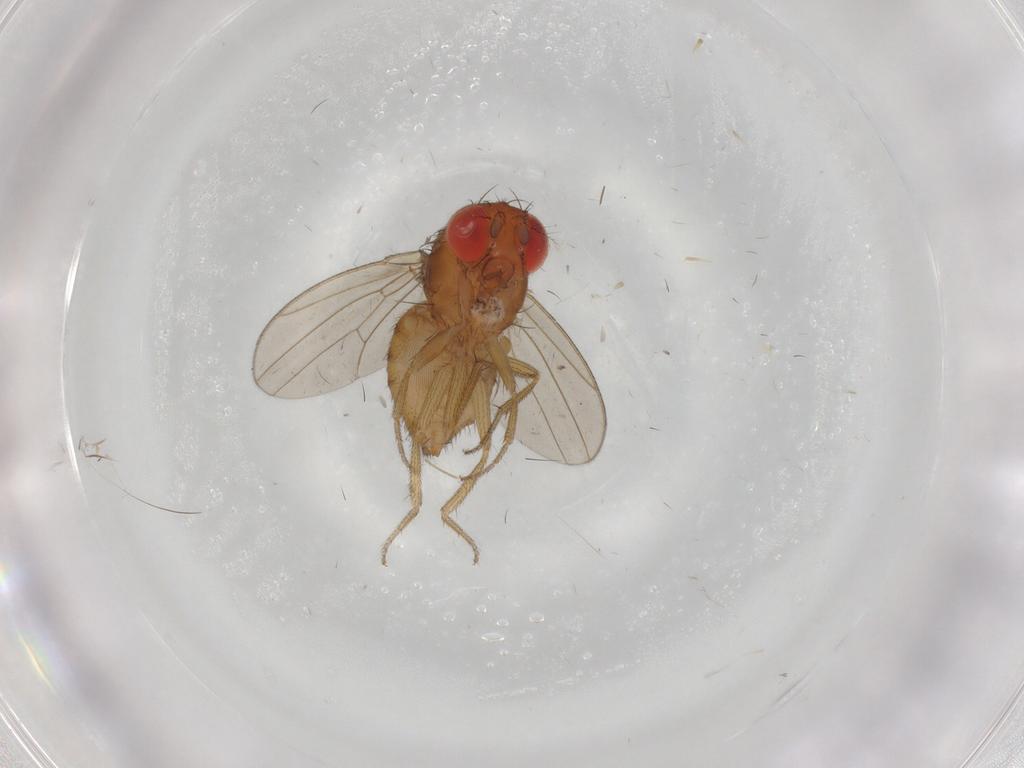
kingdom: Animalia
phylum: Arthropoda
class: Insecta
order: Diptera
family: Drosophilidae
